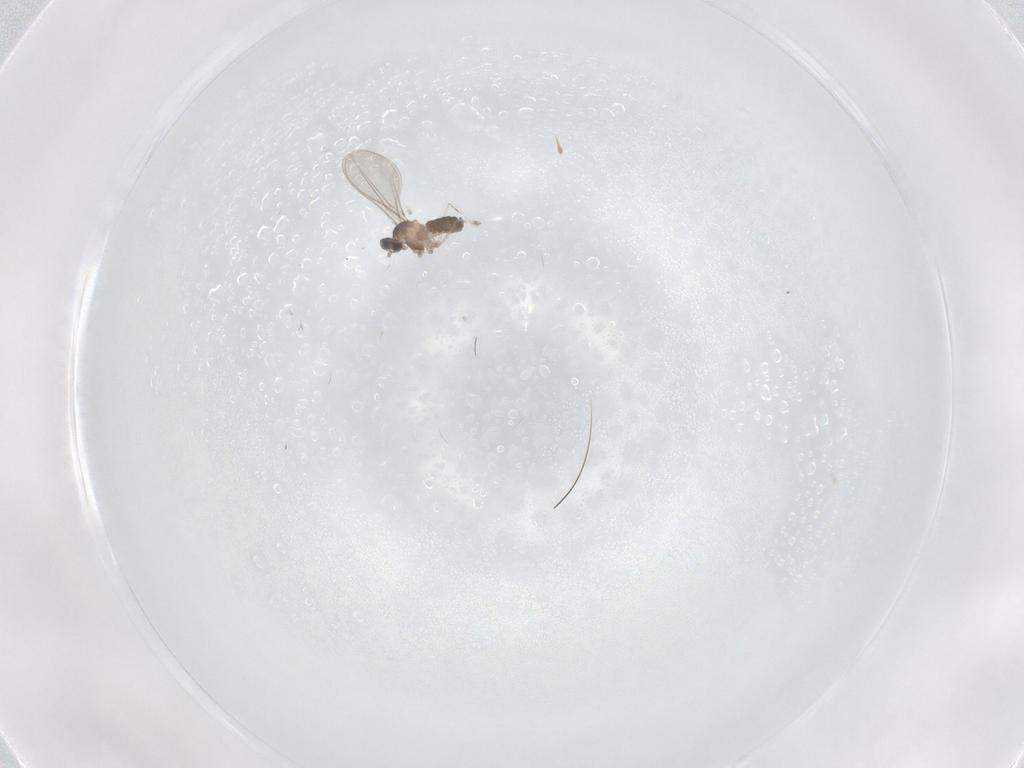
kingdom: Animalia
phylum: Arthropoda
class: Insecta
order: Diptera
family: Cecidomyiidae
